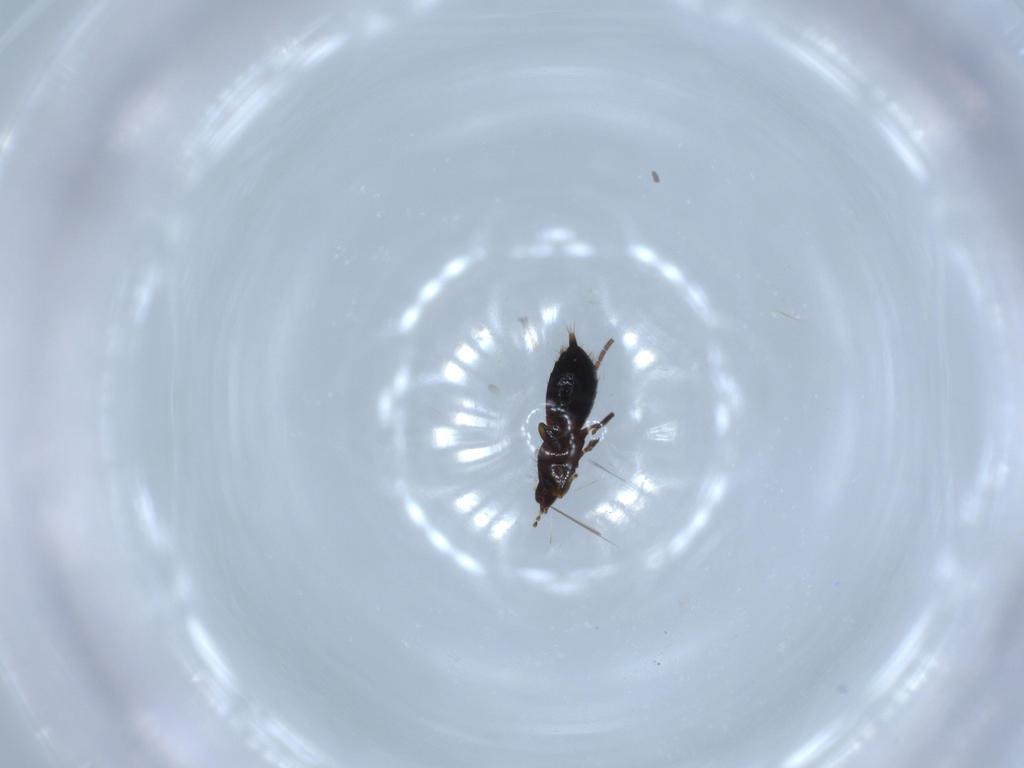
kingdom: Animalia
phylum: Arthropoda
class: Insecta
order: Thysanoptera
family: Phlaeothripidae
